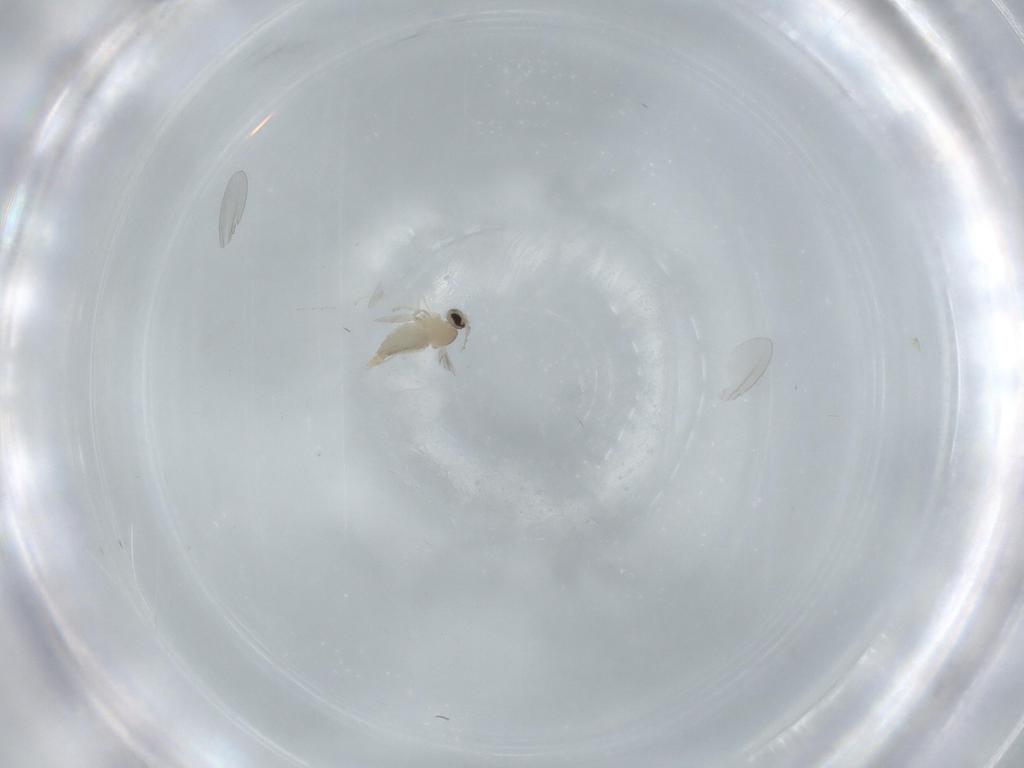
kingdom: Animalia
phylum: Arthropoda
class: Insecta
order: Diptera
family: Cecidomyiidae
